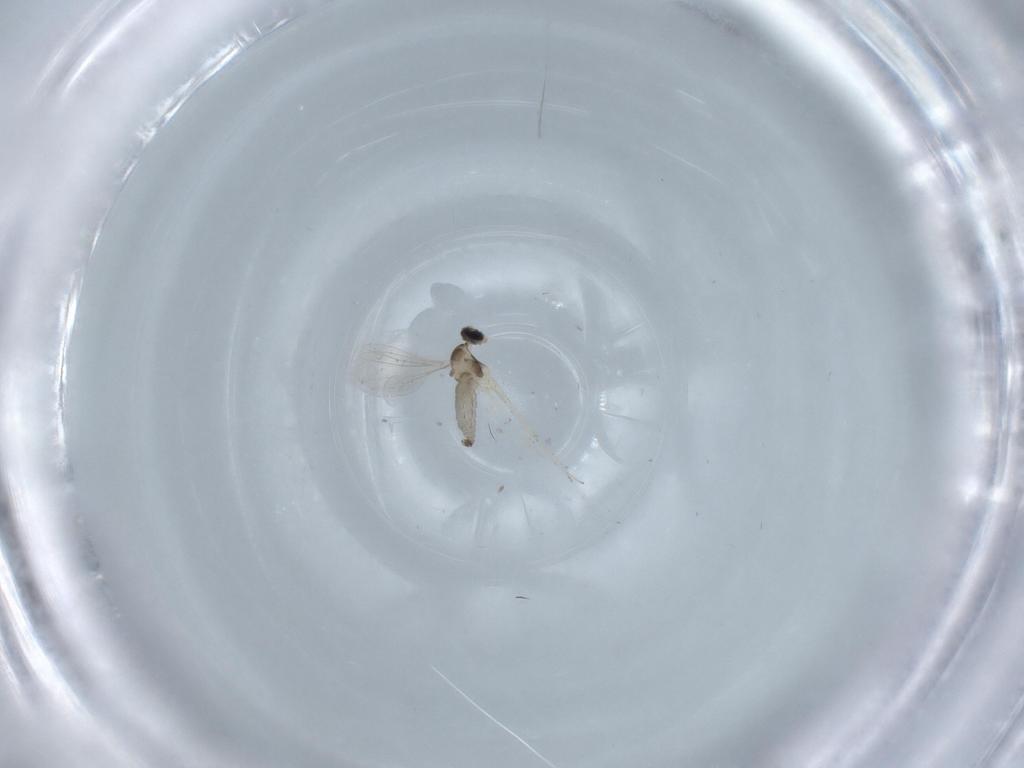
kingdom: Animalia
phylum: Arthropoda
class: Insecta
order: Diptera
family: Cecidomyiidae
